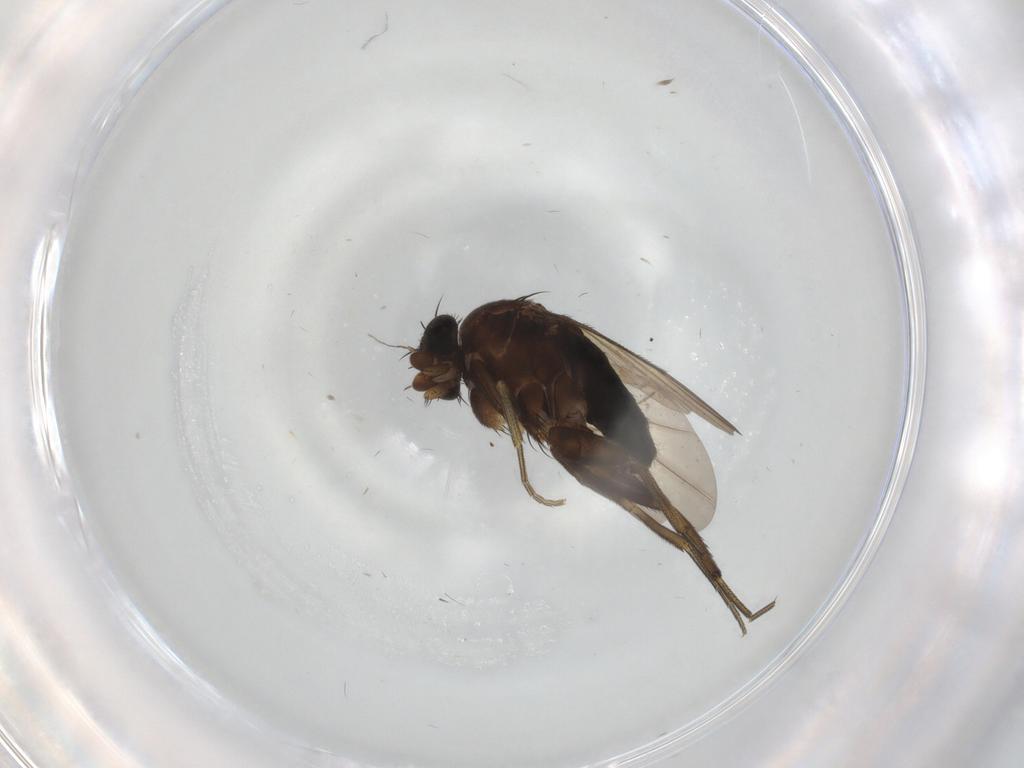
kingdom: Animalia
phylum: Arthropoda
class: Insecta
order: Diptera
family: Phoridae
